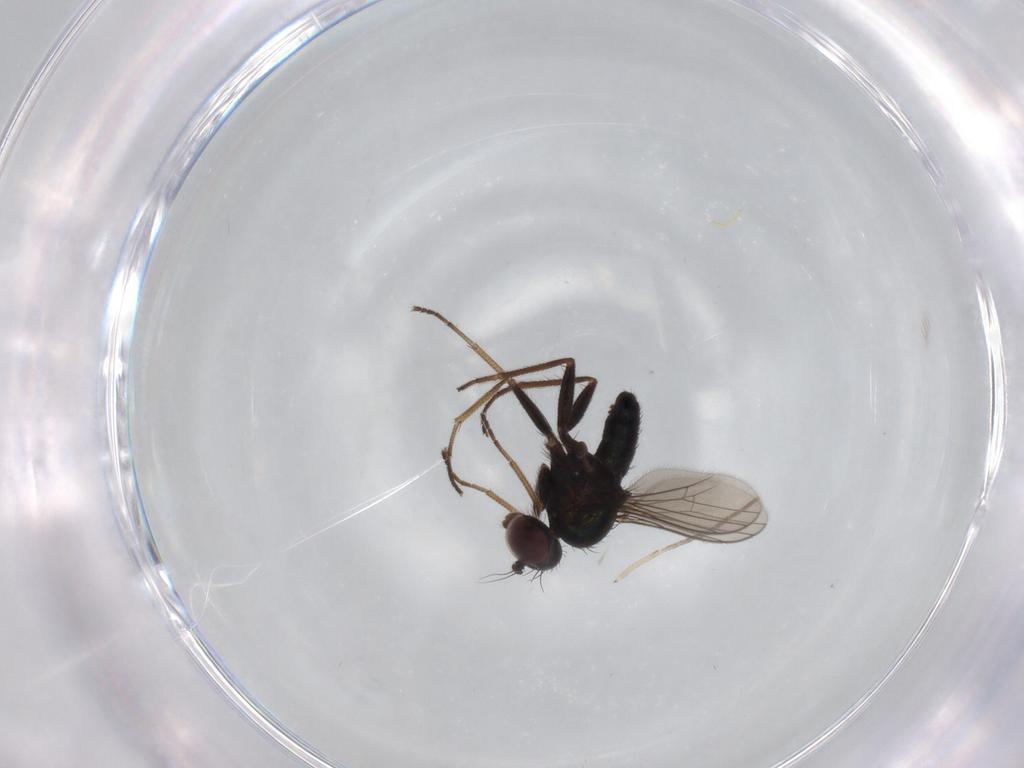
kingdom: Animalia
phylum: Arthropoda
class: Insecta
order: Diptera
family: Dolichopodidae
